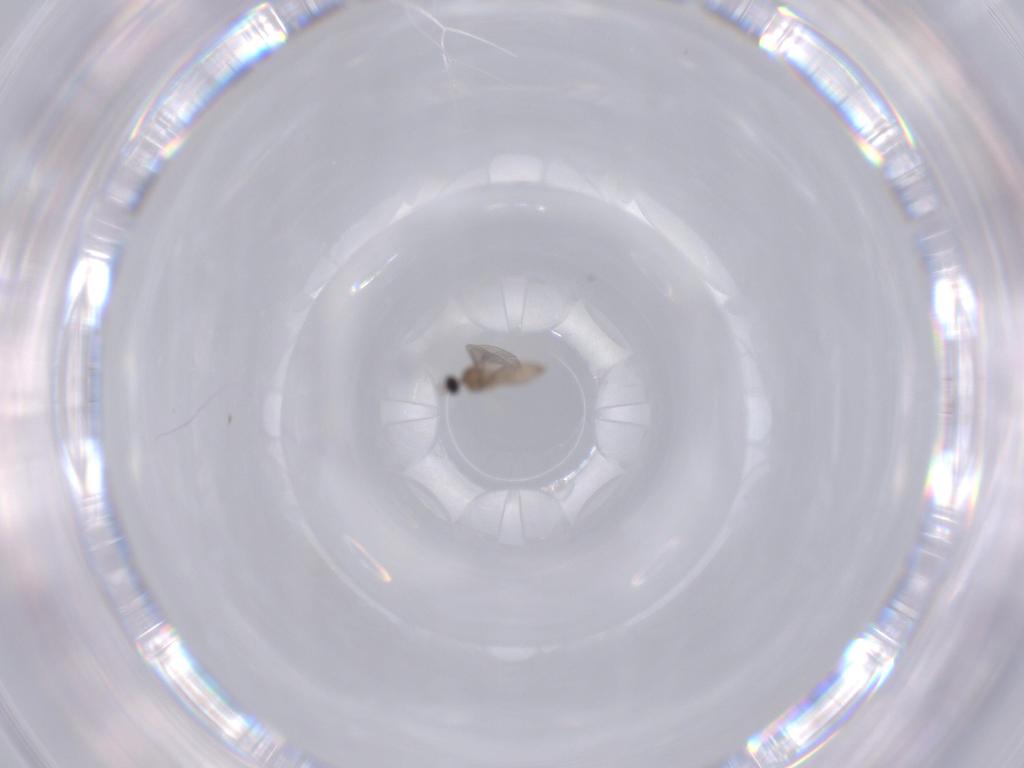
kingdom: Animalia
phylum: Arthropoda
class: Insecta
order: Diptera
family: Cecidomyiidae
